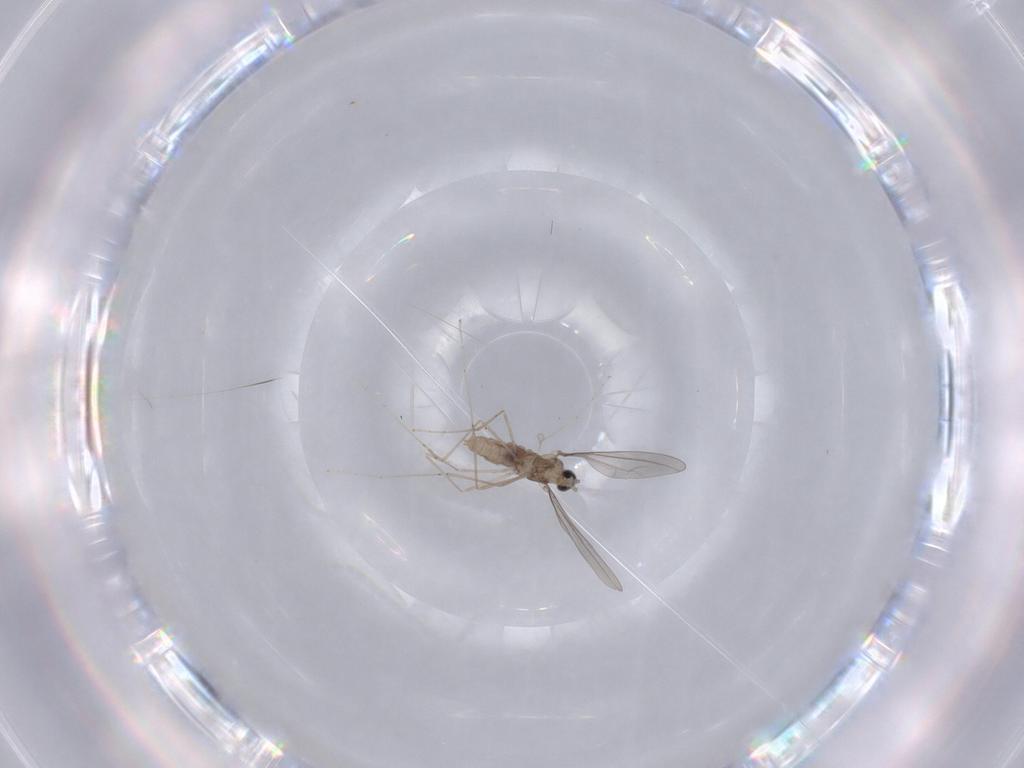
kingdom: Animalia
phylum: Arthropoda
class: Insecta
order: Diptera
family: Cecidomyiidae
